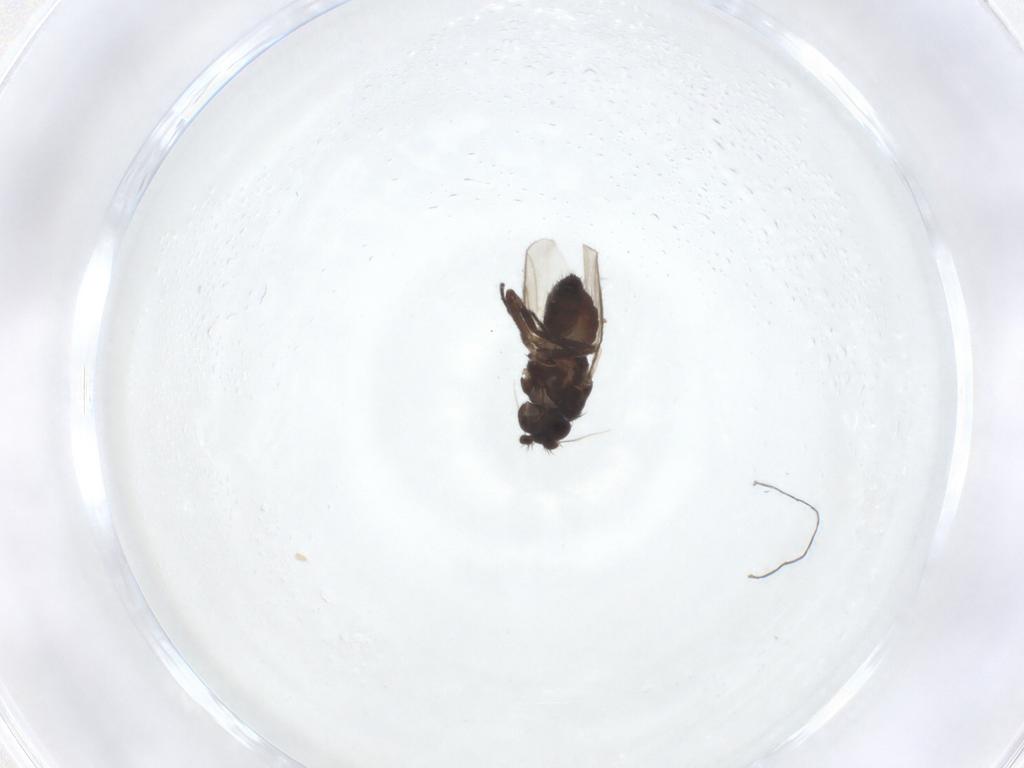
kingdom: Animalia
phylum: Arthropoda
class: Insecta
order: Diptera
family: Sphaeroceridae
